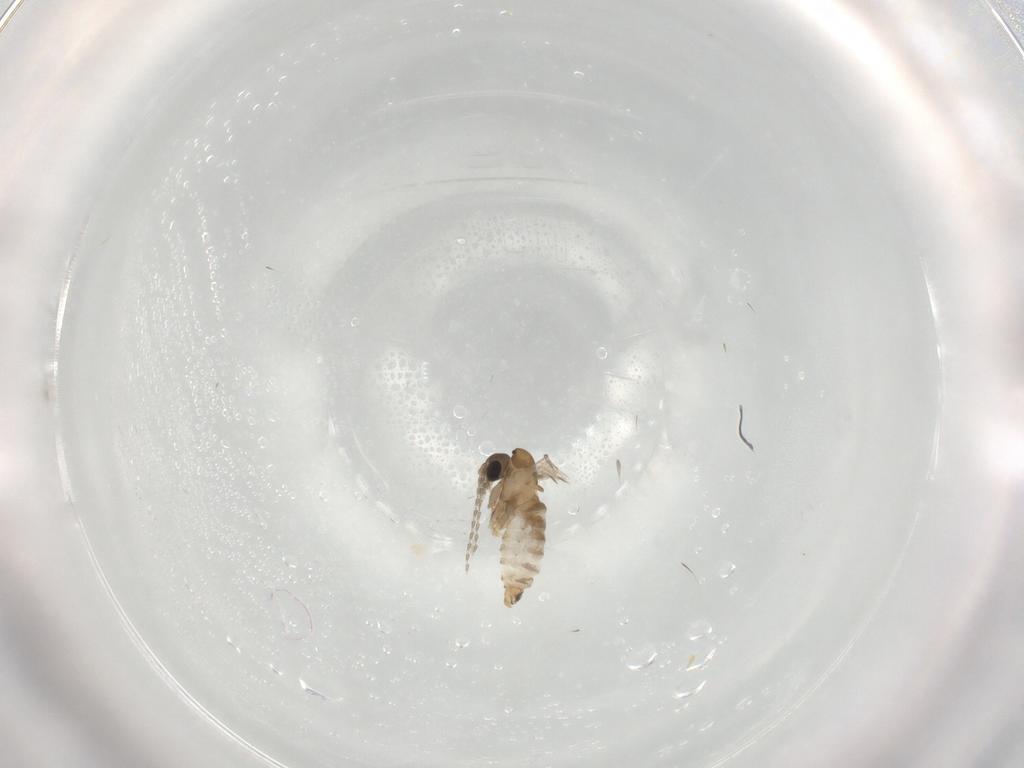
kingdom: Animalia
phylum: Arthropoda
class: Insecta
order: Diptera
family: Psychodidae
